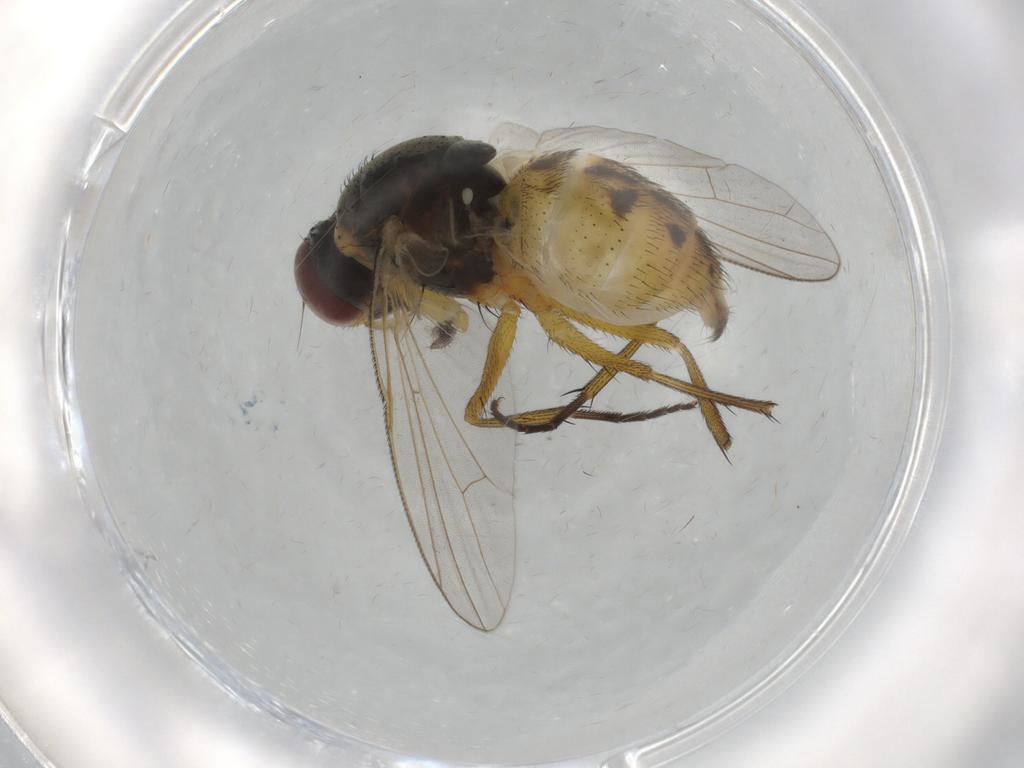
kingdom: Animalia
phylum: Arthropoda
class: Insecta
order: Diptera
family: Muscidae
